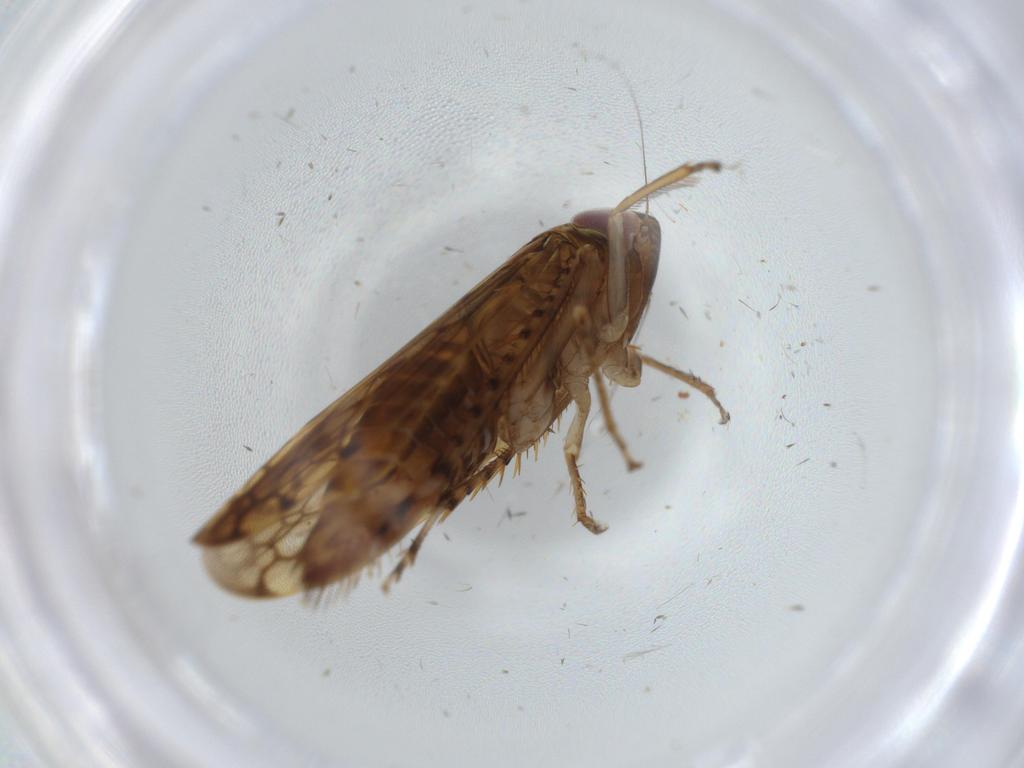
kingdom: Animalia
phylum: Arthropoda
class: Insecta
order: Hemiptera
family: Cicadellidae
